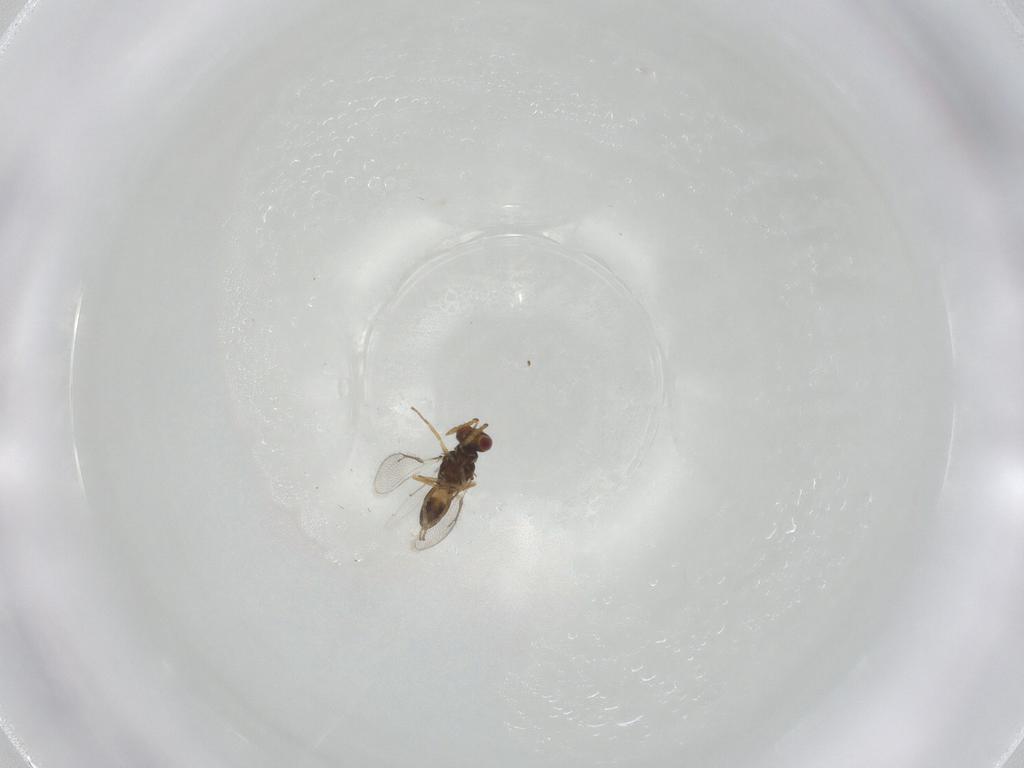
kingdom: Animalia
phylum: Arthropoda
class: Insecta
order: Hymenoptera
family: Eulophidae
